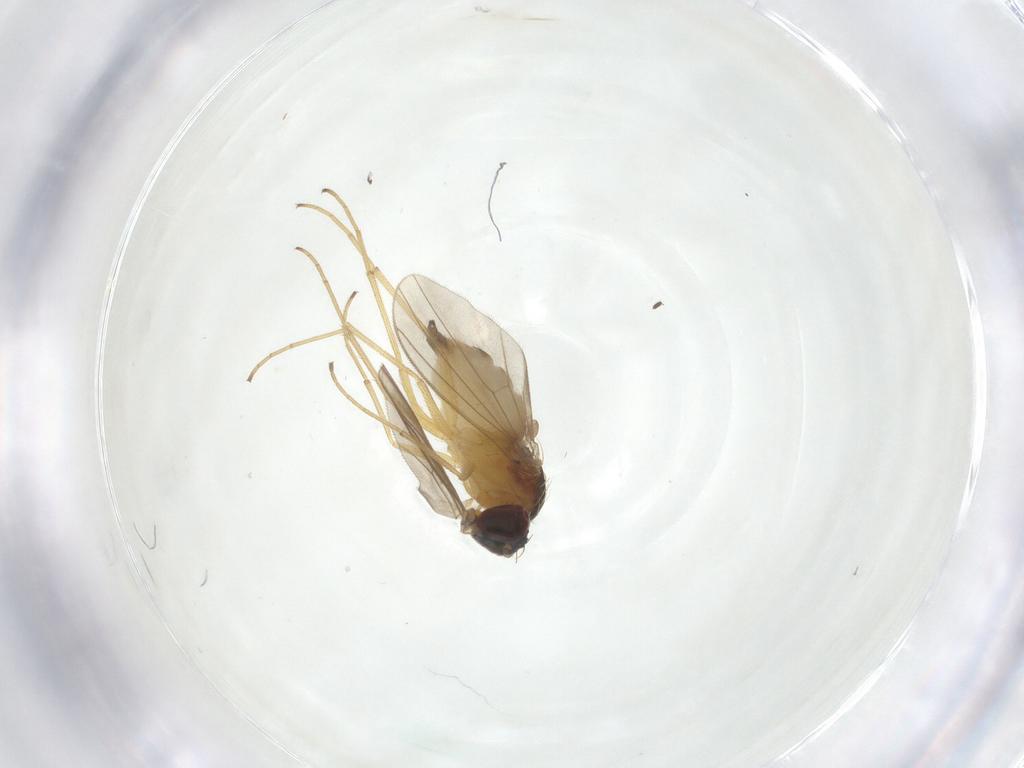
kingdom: Animalia
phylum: Arthropoda
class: Insecta
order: Diptera
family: Dolichopodidae
